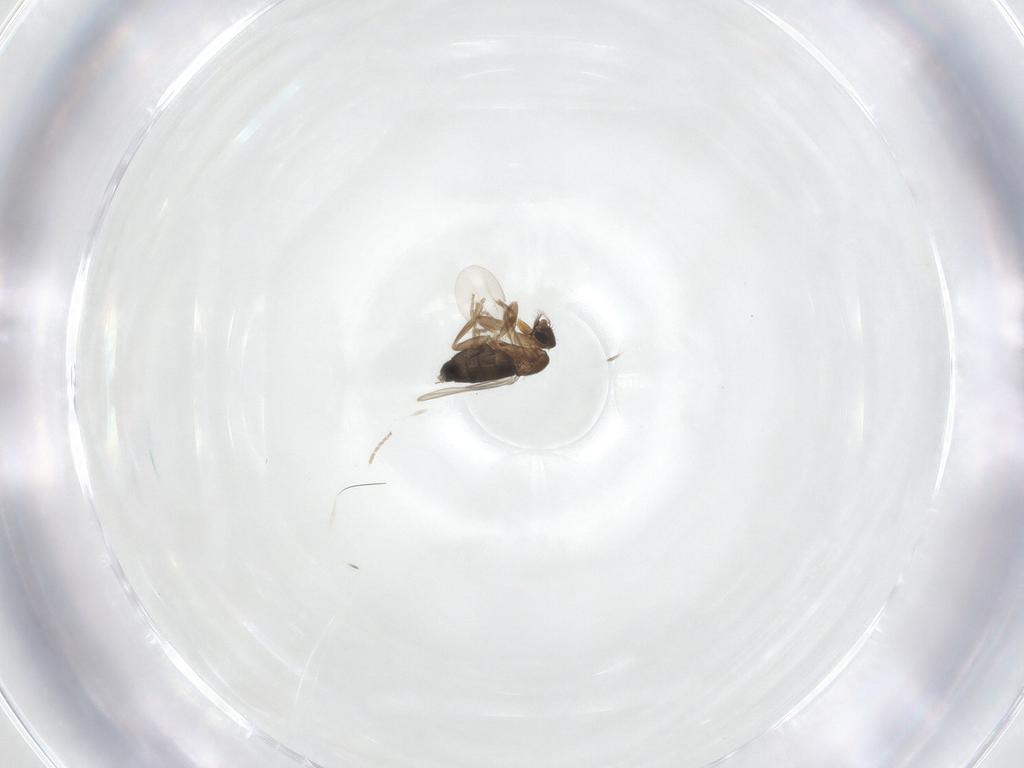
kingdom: Animalia
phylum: Arthropoda
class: Insecta
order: Diptera
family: Phoridae
